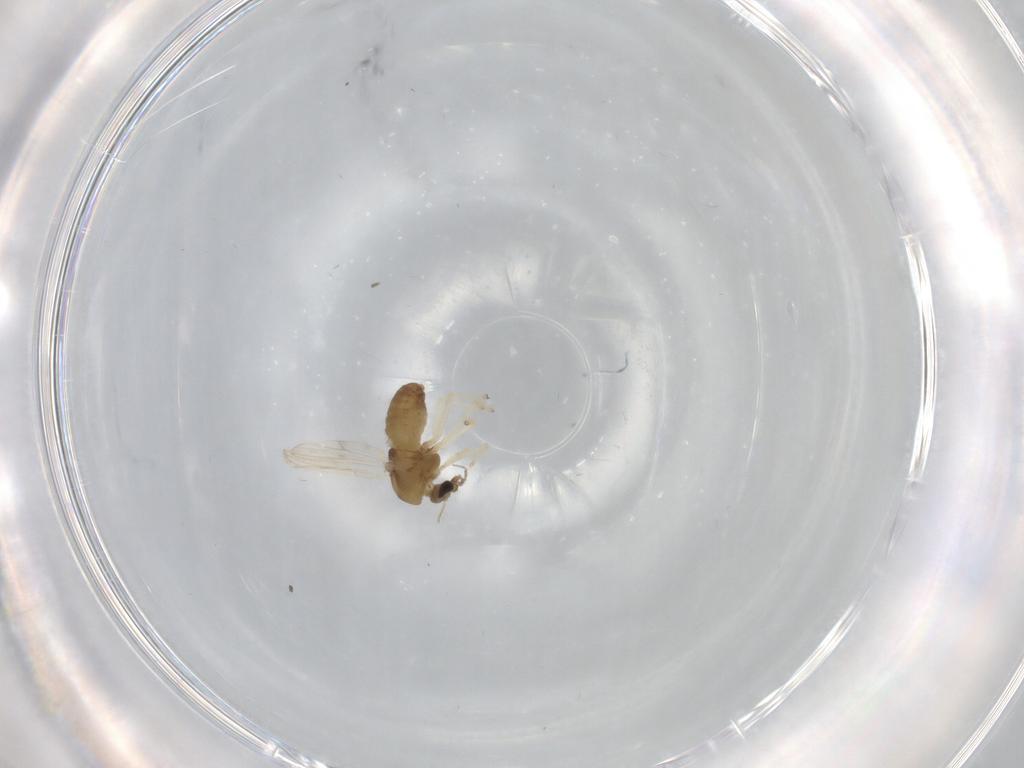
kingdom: Animalia
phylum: Arthropoda
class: Insecta
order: Diptera
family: Chironomidae
